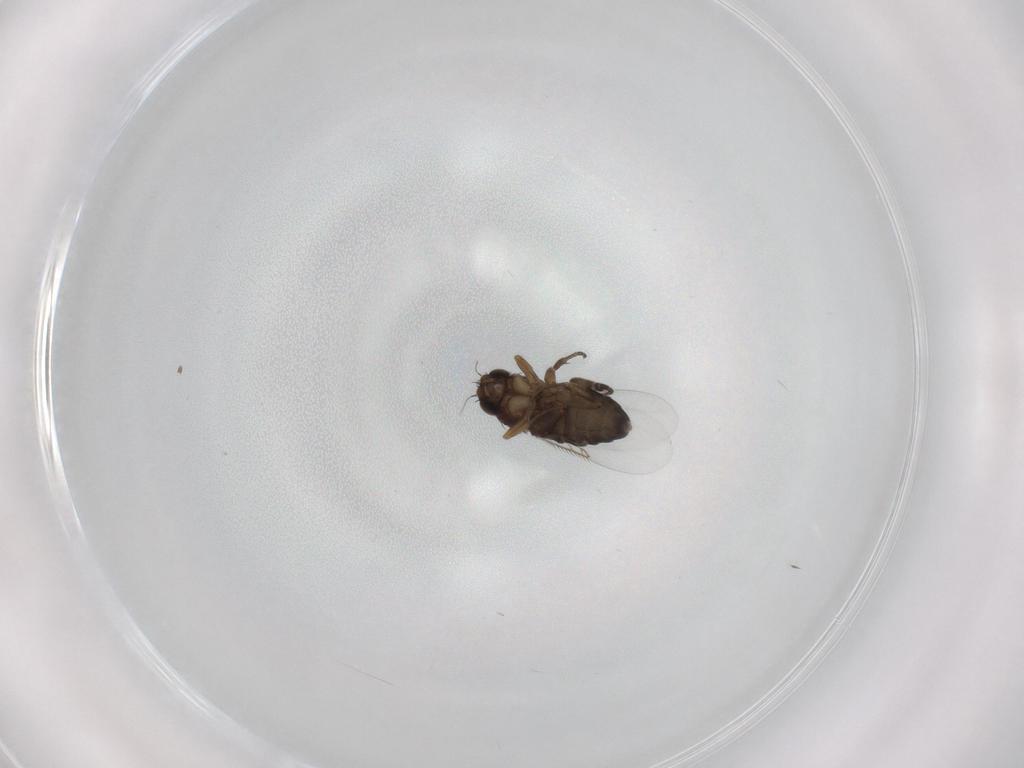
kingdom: Animalia
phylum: Arthropoda
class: Insecta
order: Diptera
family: Phoridae
